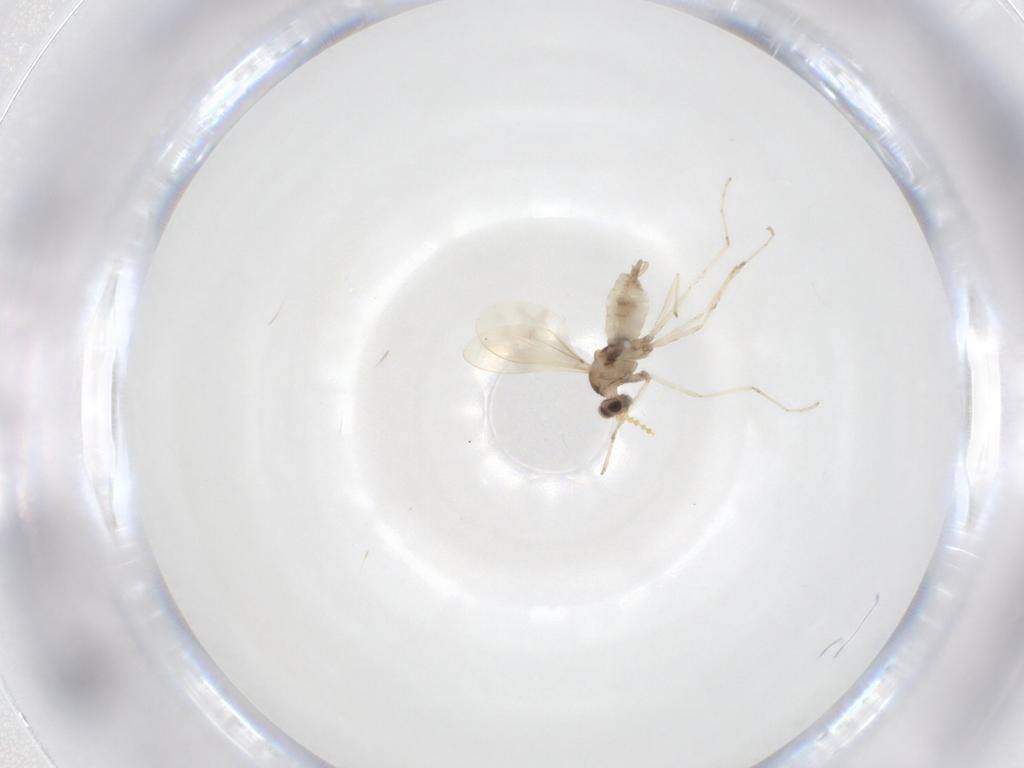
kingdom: Animalia
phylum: Arthropoda
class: Insecta
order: Diptera
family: Cecidomyiidae
